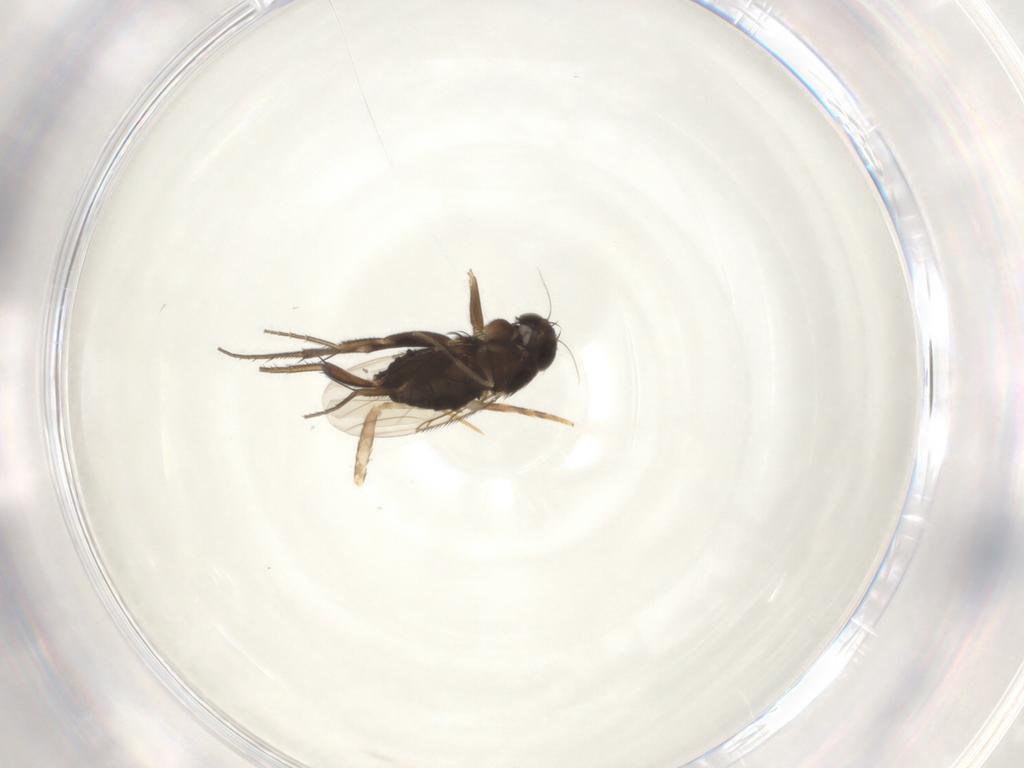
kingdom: Animalia
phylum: Arthropoda
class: Insecta
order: Diptera
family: Phoridae
